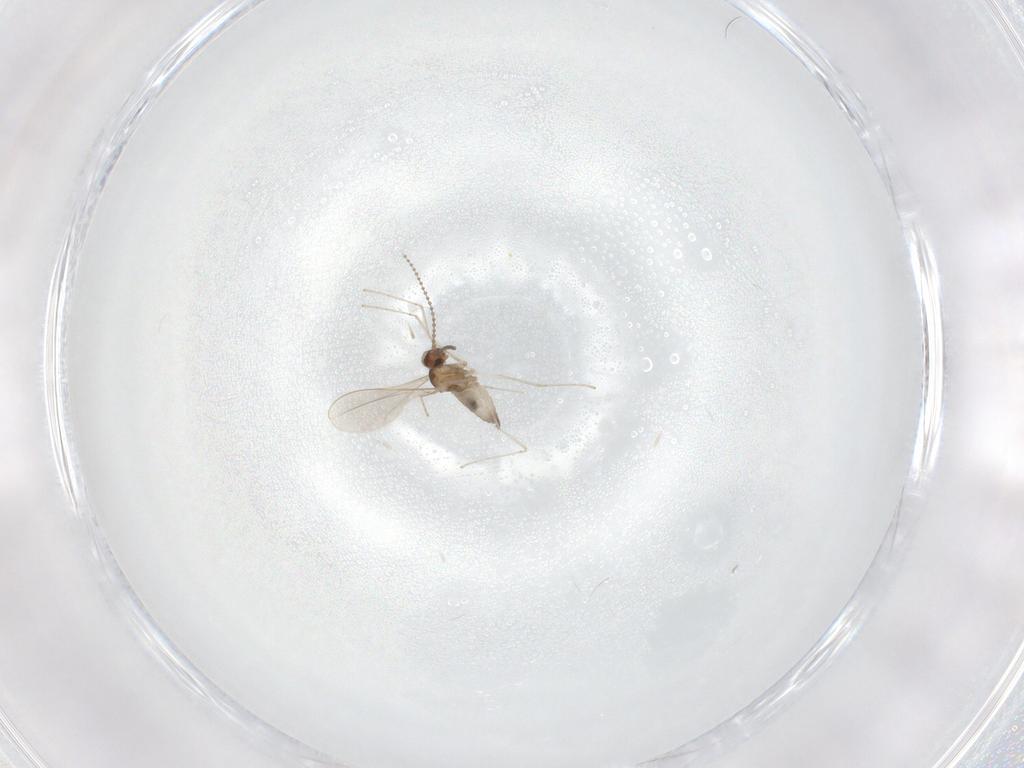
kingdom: Animalia
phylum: Arthropoda
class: Insecta
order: Diptera
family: Cecidomyiidae
